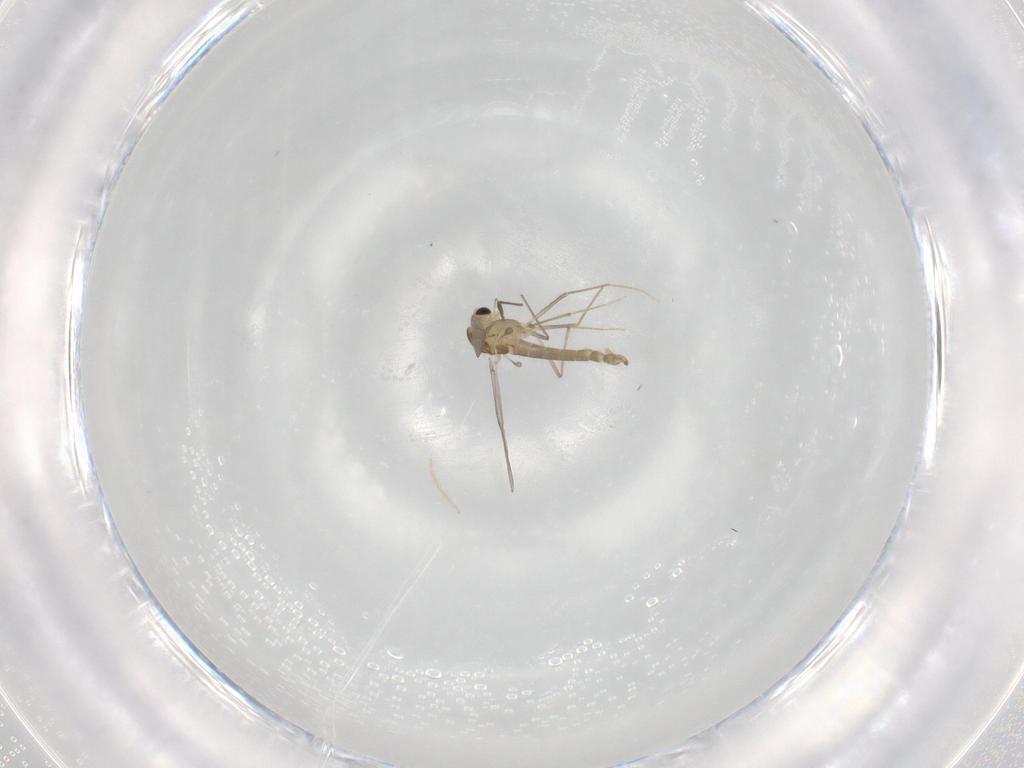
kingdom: Animalia
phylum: Arthropoda
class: Insecta
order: Diptera
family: Chironomidae
